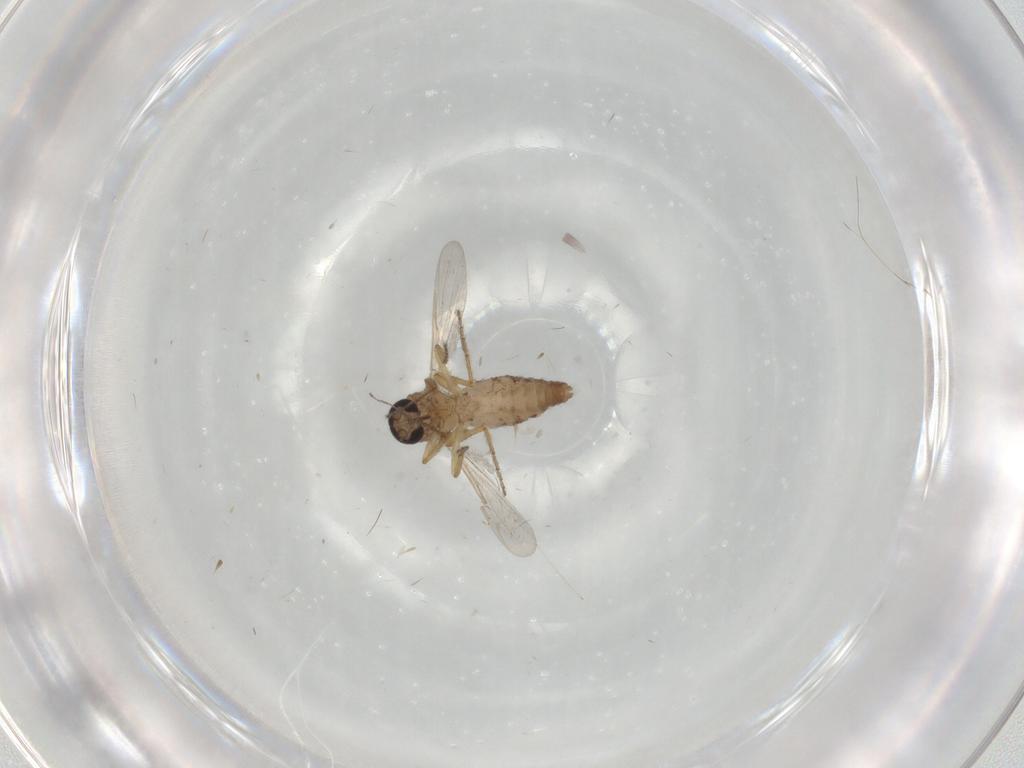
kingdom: Animalia
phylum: Arthropoda
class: Insecta
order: Diptera
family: Ceratopogonidae
